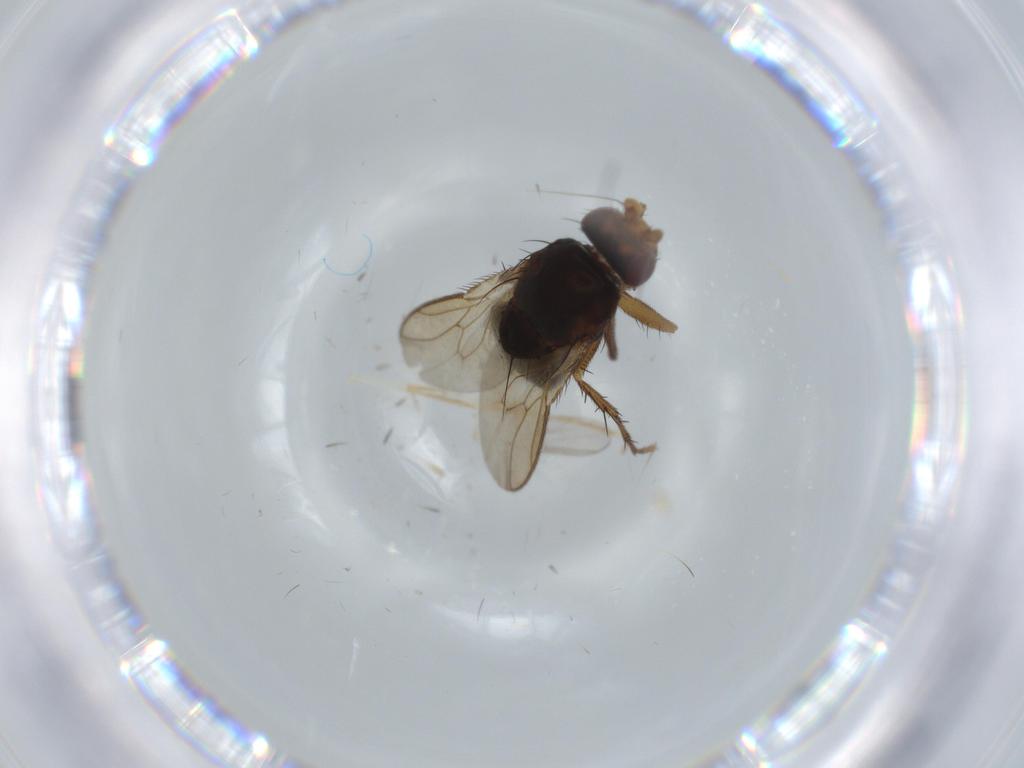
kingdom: Animalia
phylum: Arthropoda
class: Insecta
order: Diptera
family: Sphaeroceridae
